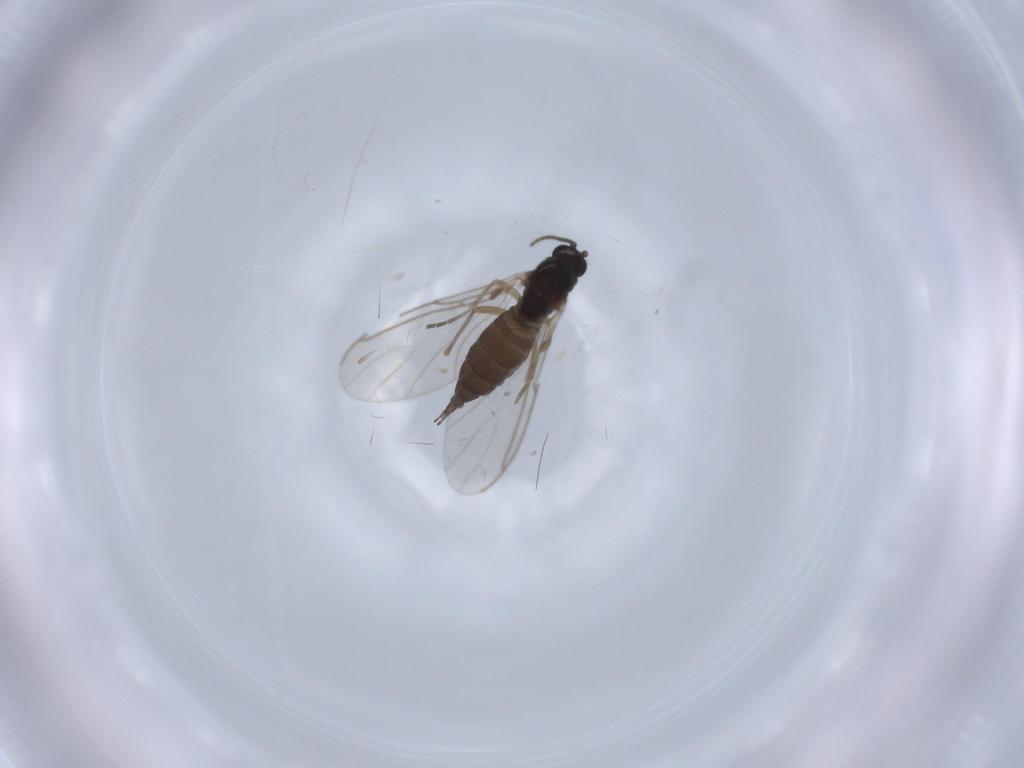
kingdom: Animalia
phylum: Arthropoda
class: Insecta
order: Diptera
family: Sciaridae
